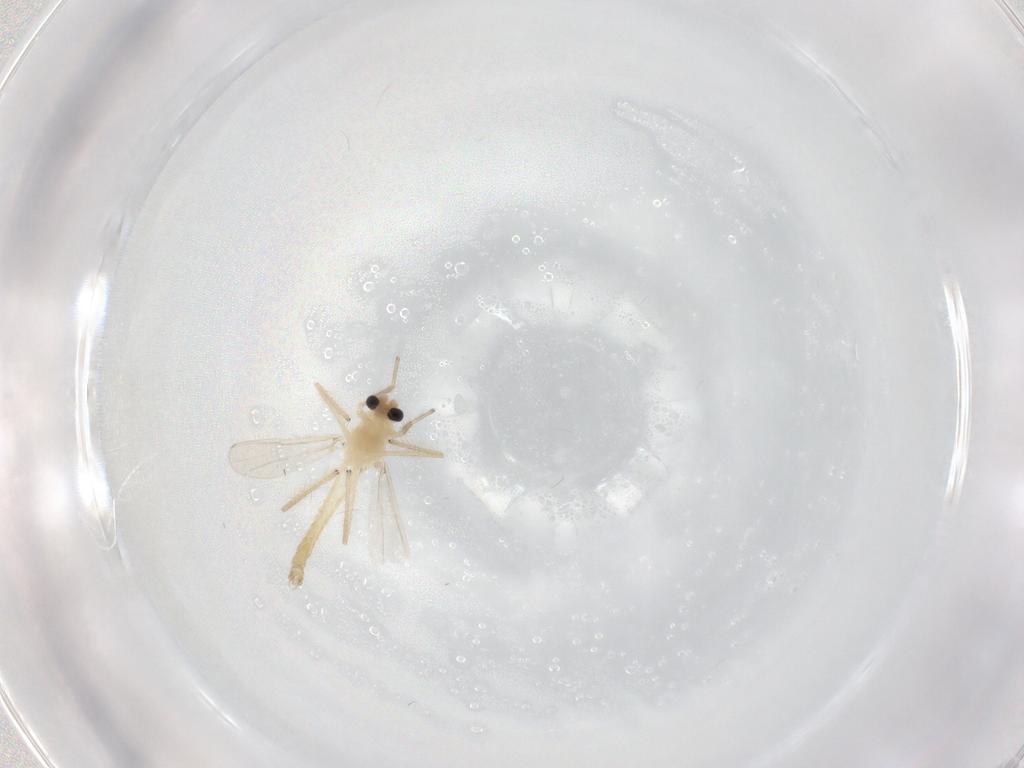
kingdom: Animalia
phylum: Arthropoda
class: Insecta
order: Diptera
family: Chironomidae
